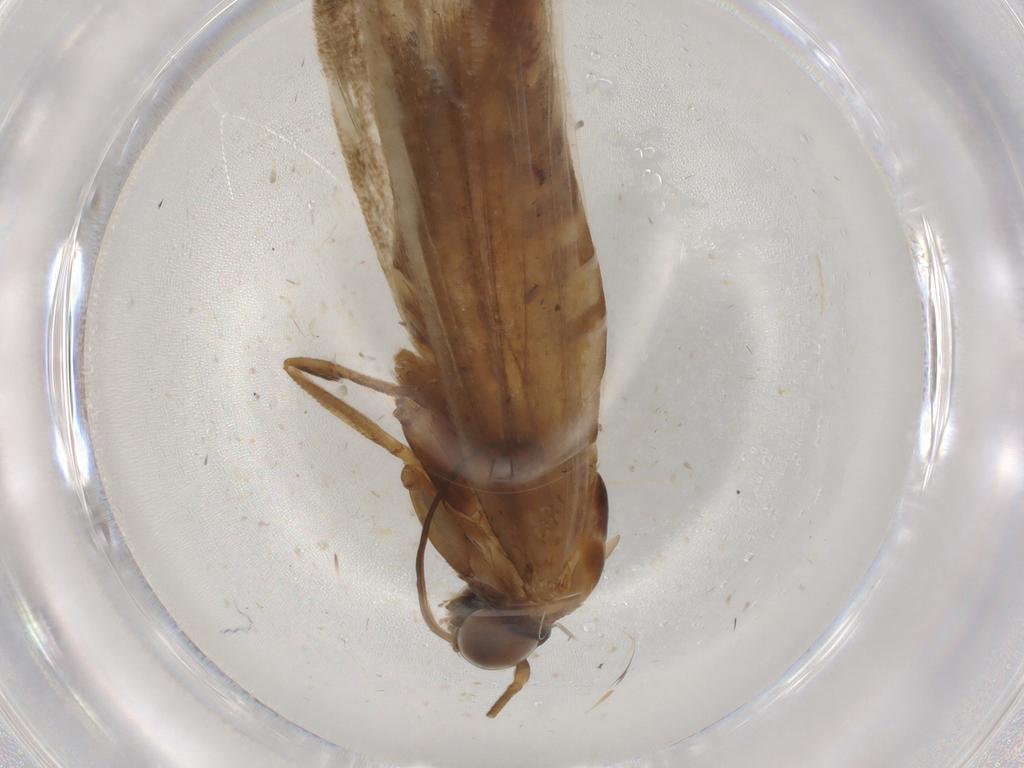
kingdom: Animalia
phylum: Arthropoda
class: Insecta
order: Lepidoptera
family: Pyralidae
